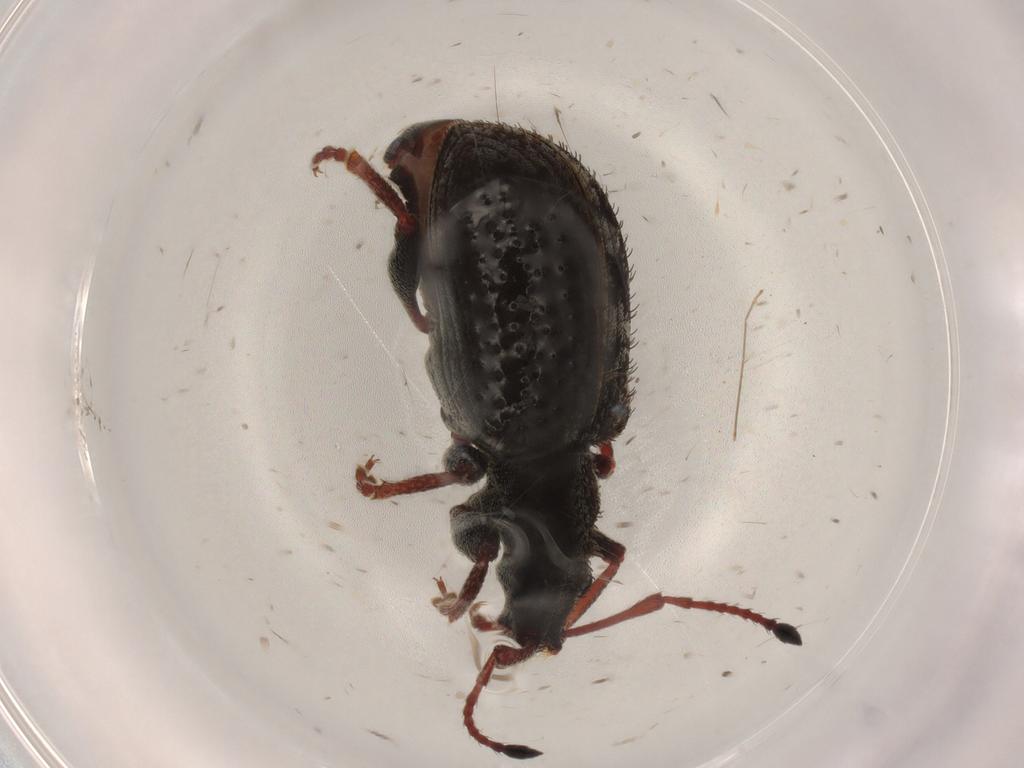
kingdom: Animalia
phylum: Arthropoda
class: Insecta
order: Coleoptera
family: Curculionidae
